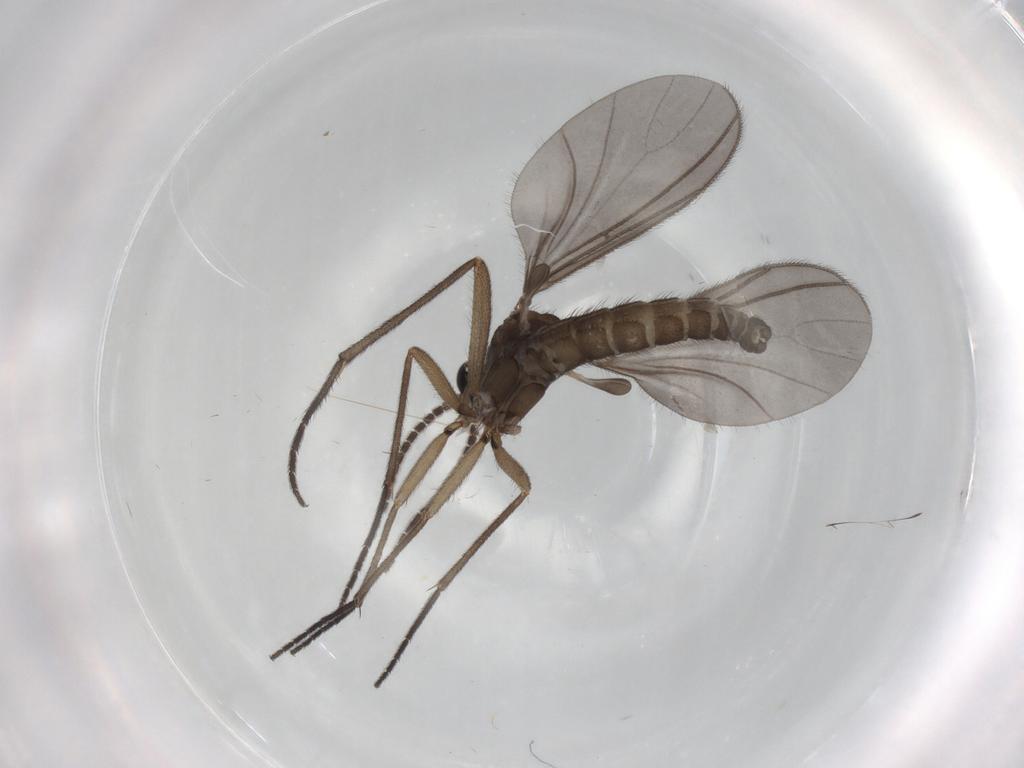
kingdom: Animalia
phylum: Arthropoda
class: Insecta
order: Diptera
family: Sciaridae
